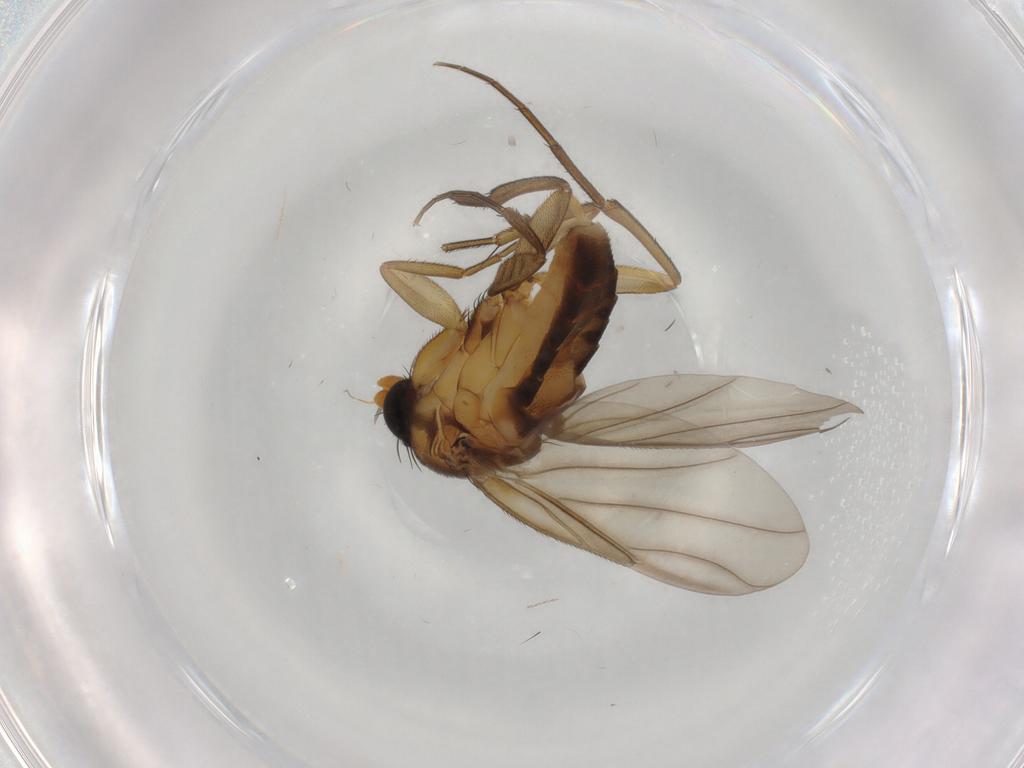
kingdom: Animalia
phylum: Arthropoda
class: Insecta
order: Diptera
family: Phoridae
